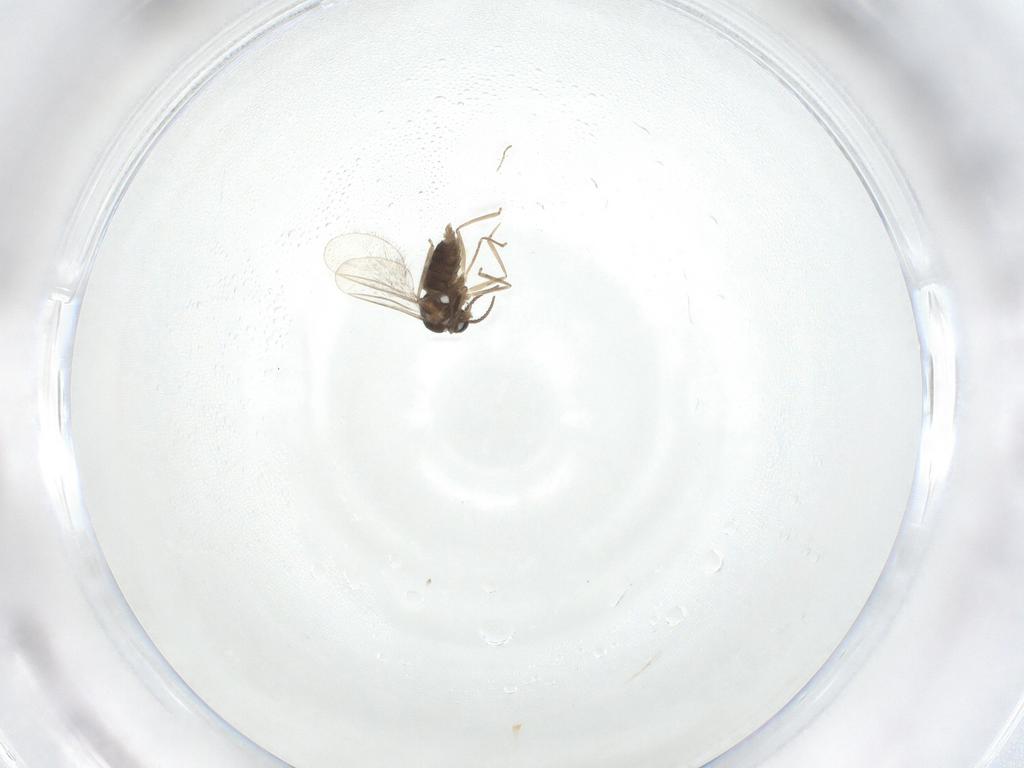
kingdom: Animalia
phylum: Arthropoda
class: Insecta
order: Diptera
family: Cecidomyiidae
